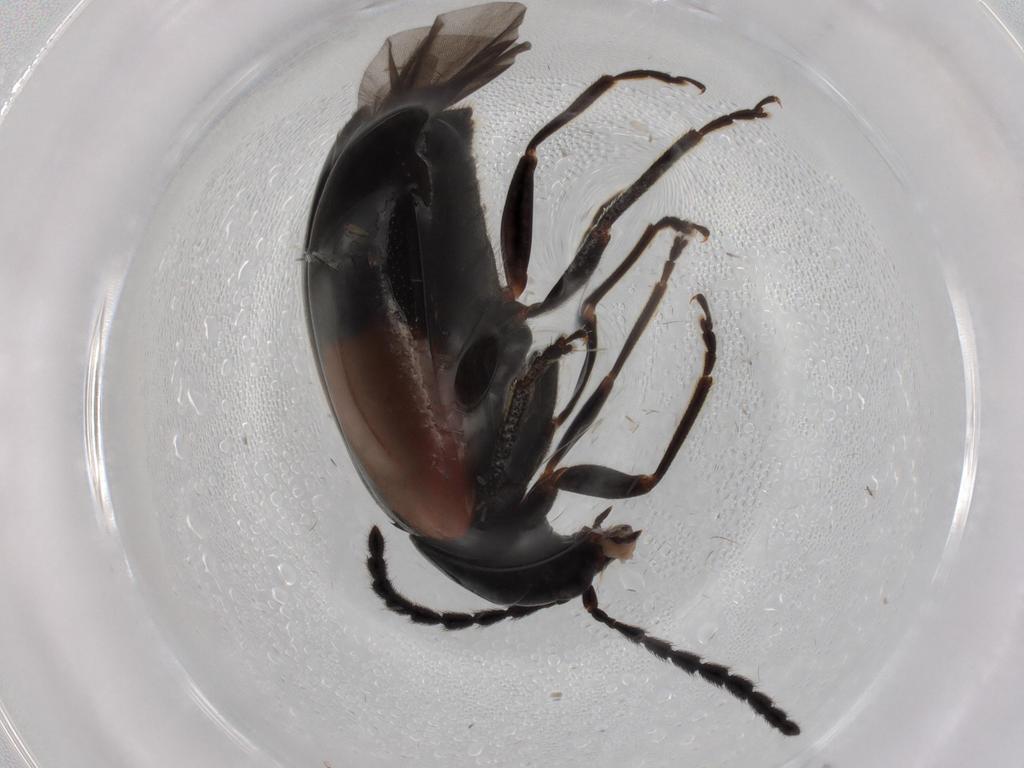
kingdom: Animalia
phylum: Arthropoda
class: Insecta
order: Coleoptera
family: Chrysomelidae
